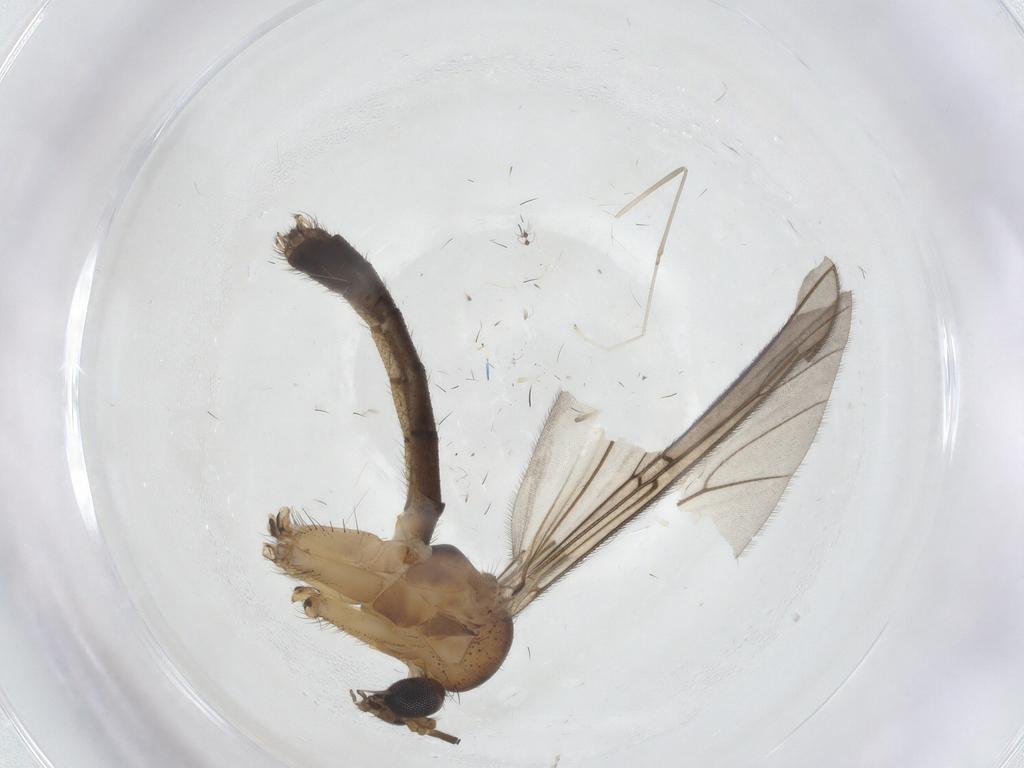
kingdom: Animalia
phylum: Arthropoda
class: Insecta
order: Diptera
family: Mycetophilidae
